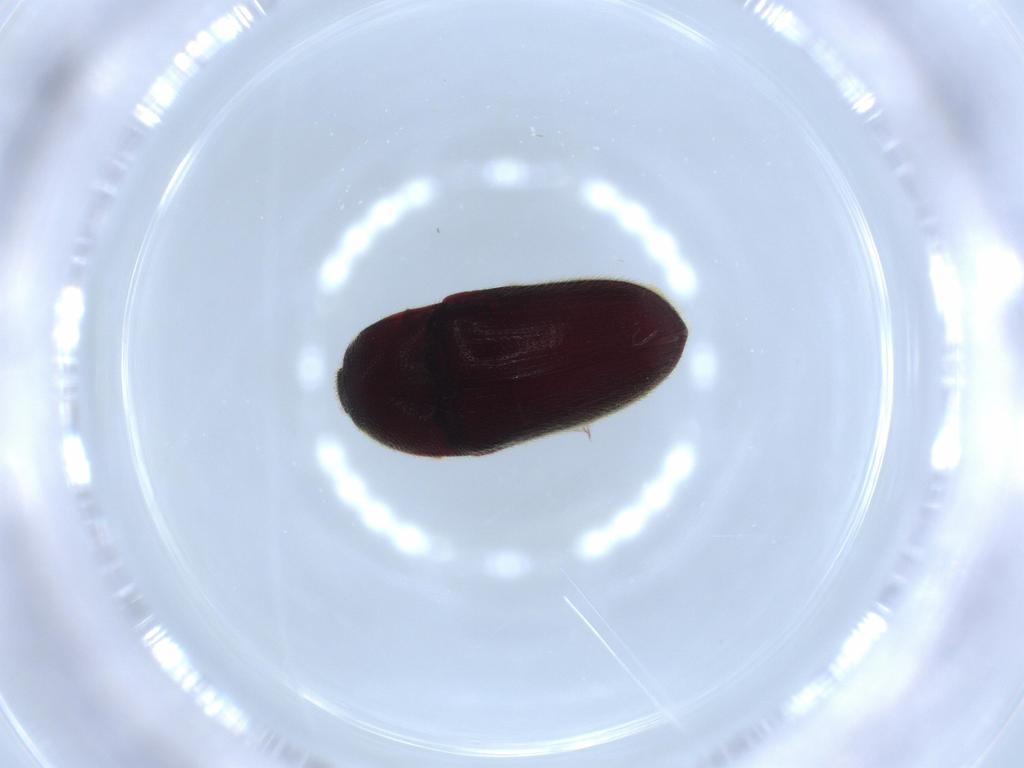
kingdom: Animalia
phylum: Arthropoda
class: Insecta
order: Coleoptera
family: Throscidae
